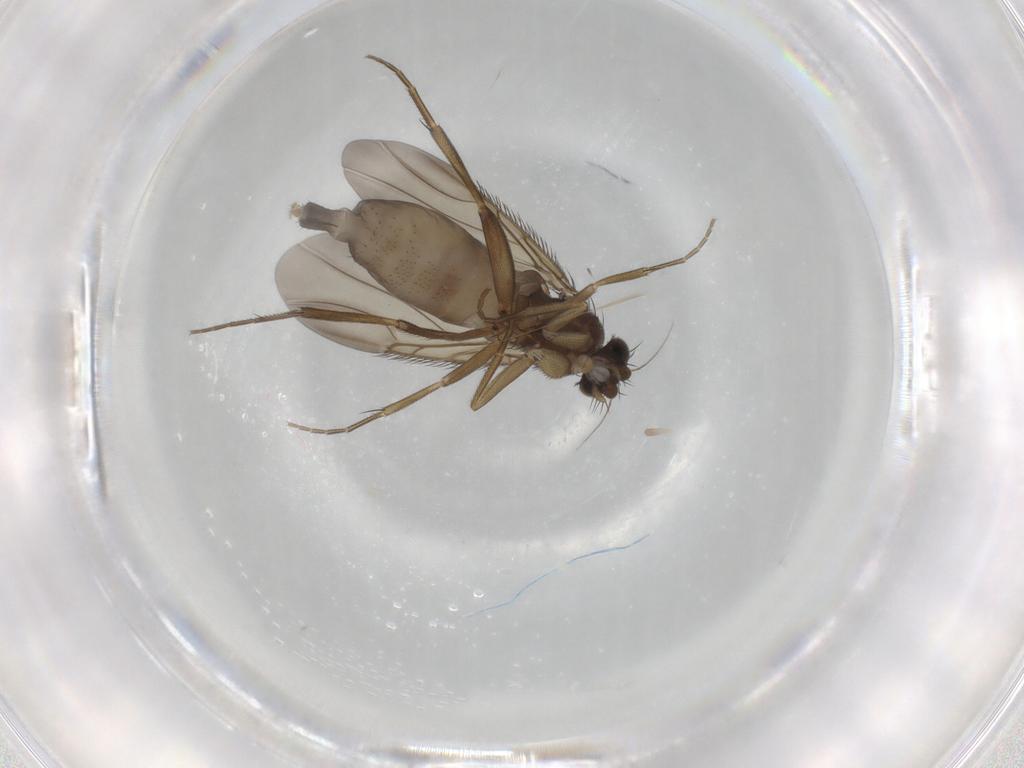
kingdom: Animalia
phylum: Arthropoda
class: Insecta
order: Diptera
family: Phoridae
